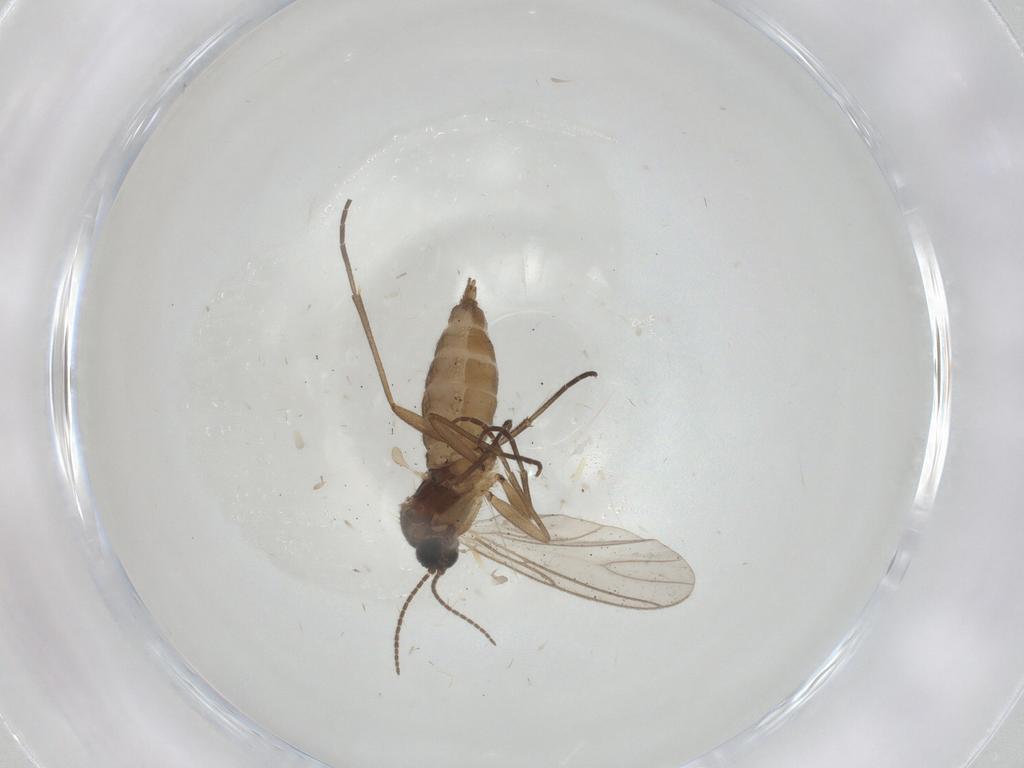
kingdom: Animalia
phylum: Arthropoda
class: Insecta
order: Diptera
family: Sciaridae
